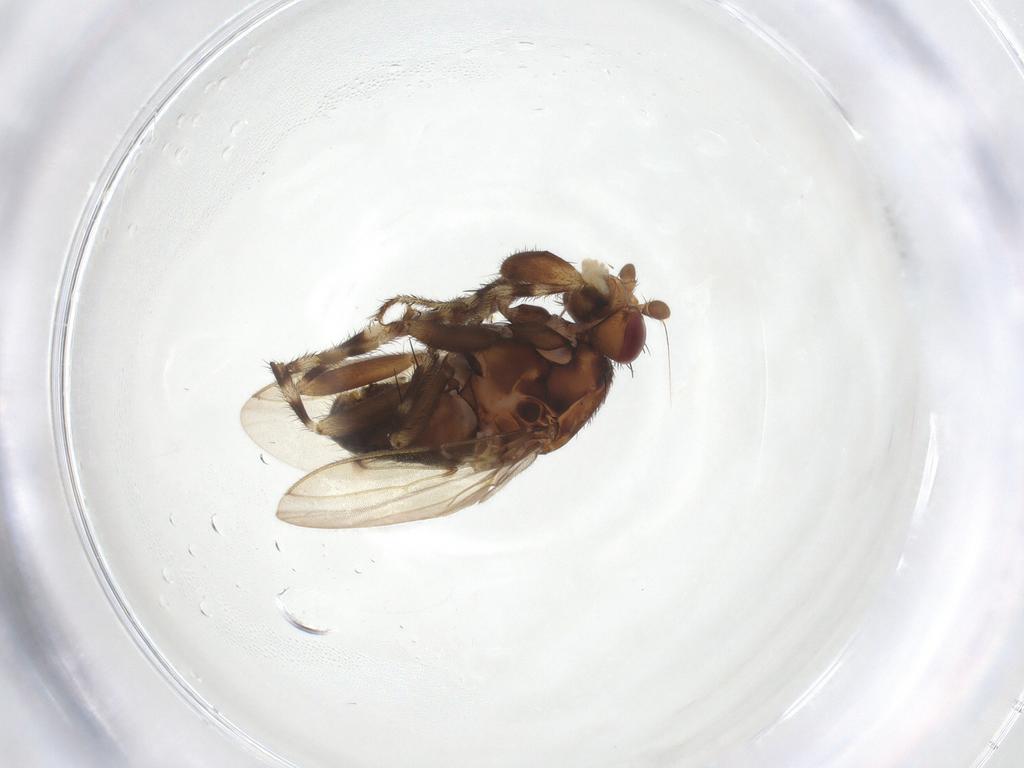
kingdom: Animalia
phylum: Arthropoda
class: Insecta
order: Diptera
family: Sphaeroceridae
